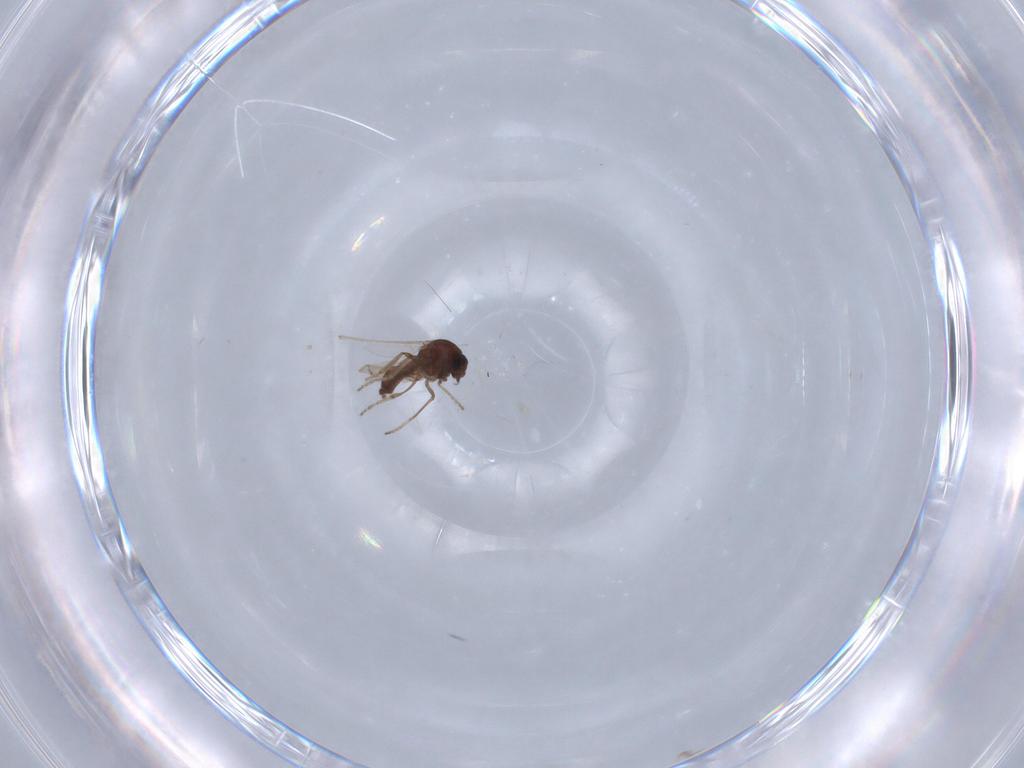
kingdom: Animalia
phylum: Arthropoda
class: Insecta
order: Diptera
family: Ceratopogonidae
